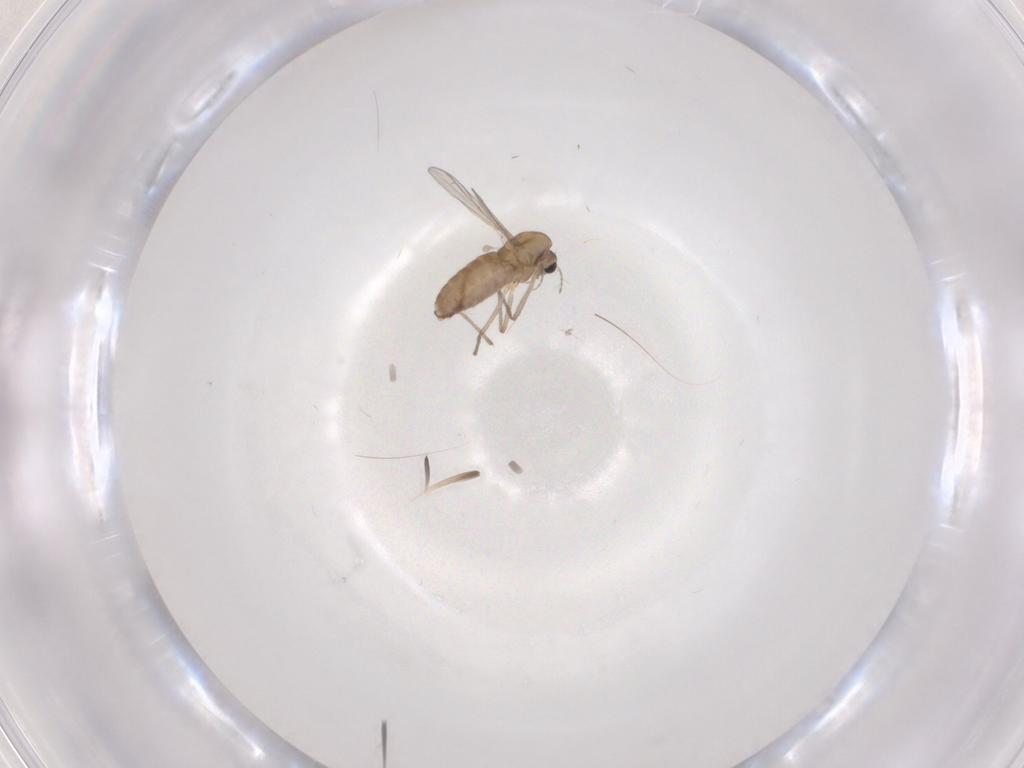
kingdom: Animalia
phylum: Arthropoda
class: Insecta
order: Diptera
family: Chironomidae
